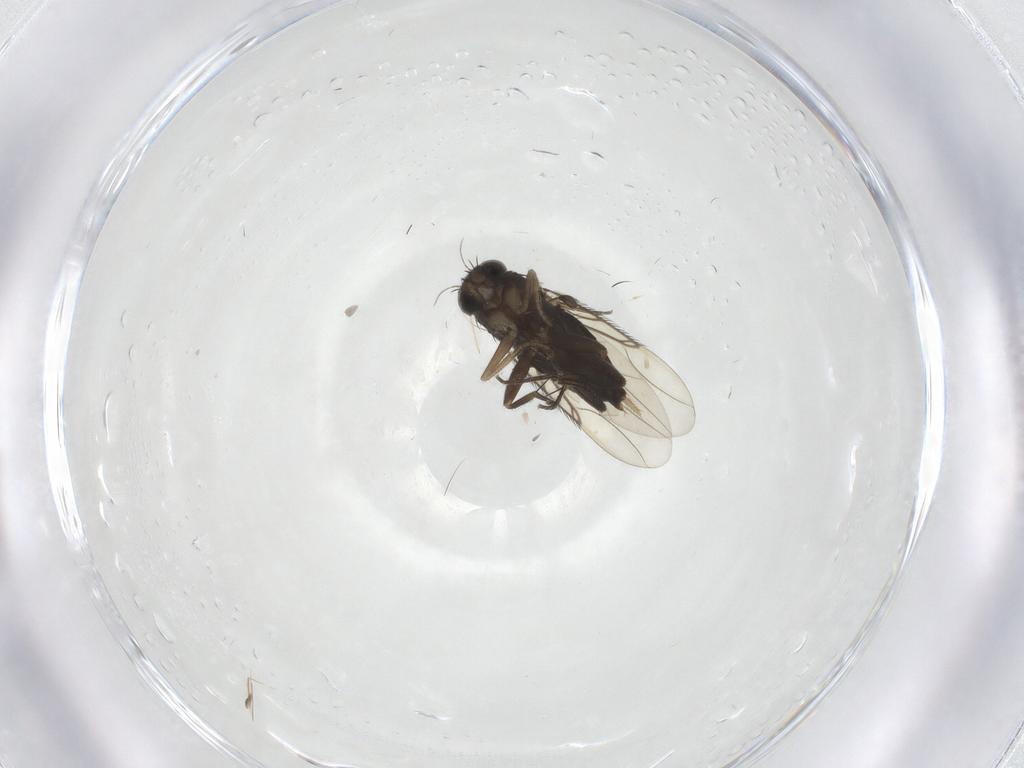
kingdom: Animalia
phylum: Arthropoda
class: Insecta
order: Diptera
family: Phoridae
